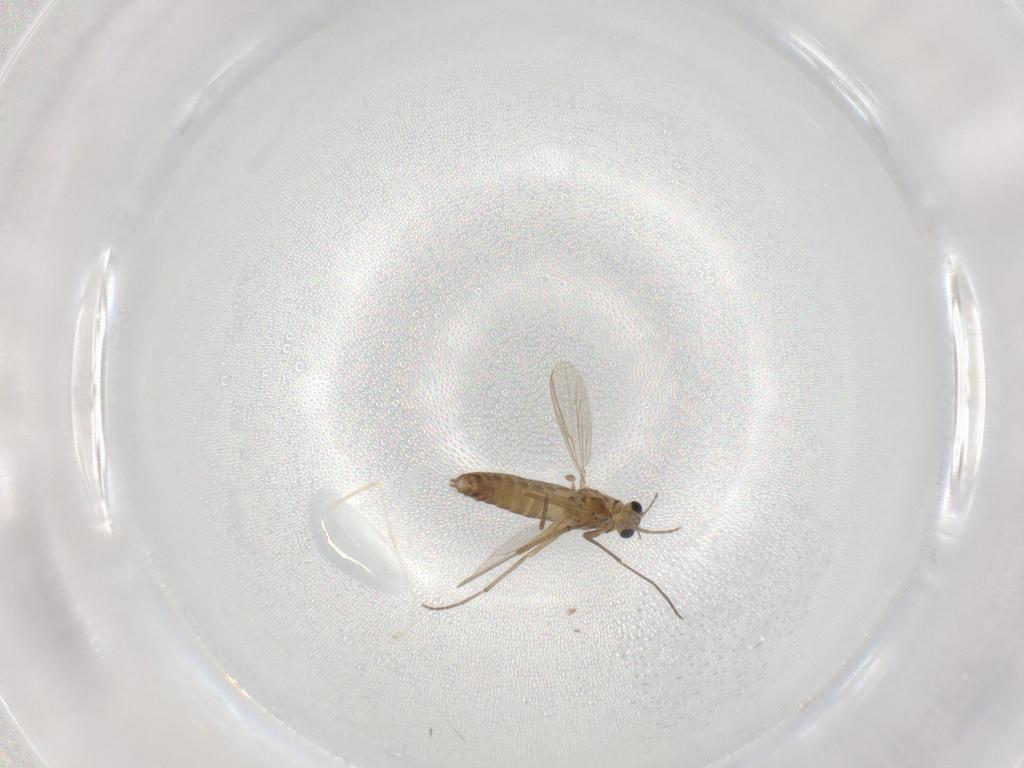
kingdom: Animalia
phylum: Arthropoda
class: Insecta
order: Diptera
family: Chironomidae
